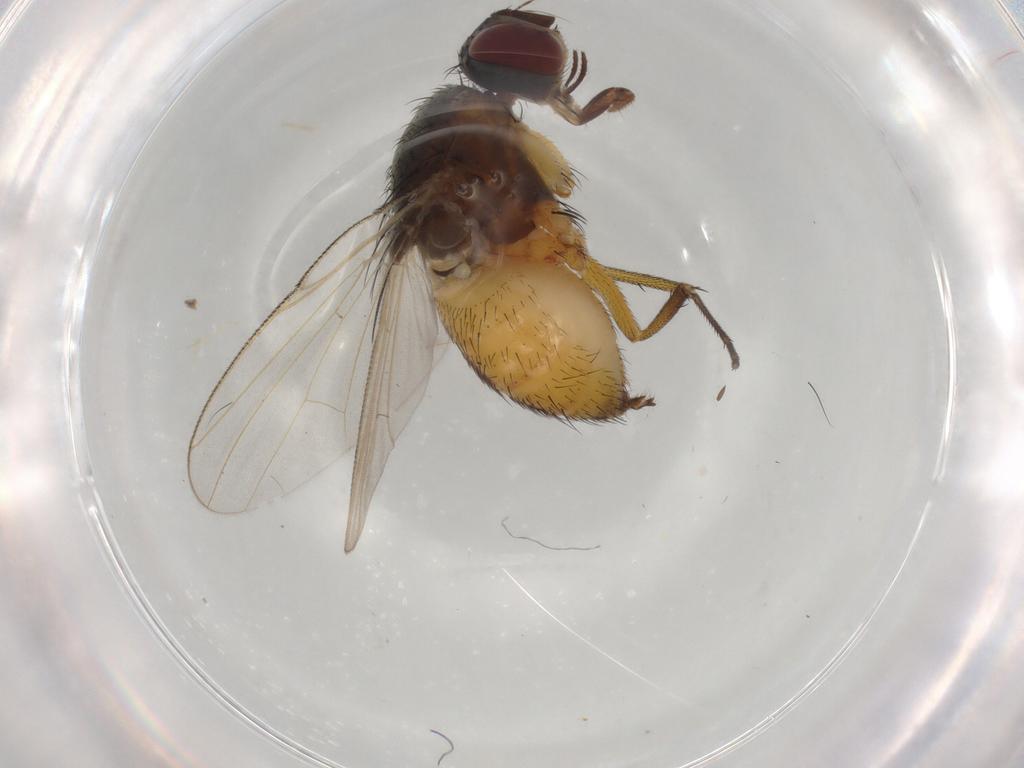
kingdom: Animalia
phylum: Arthropoda
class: Insecta
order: Diptera
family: Muscidae
